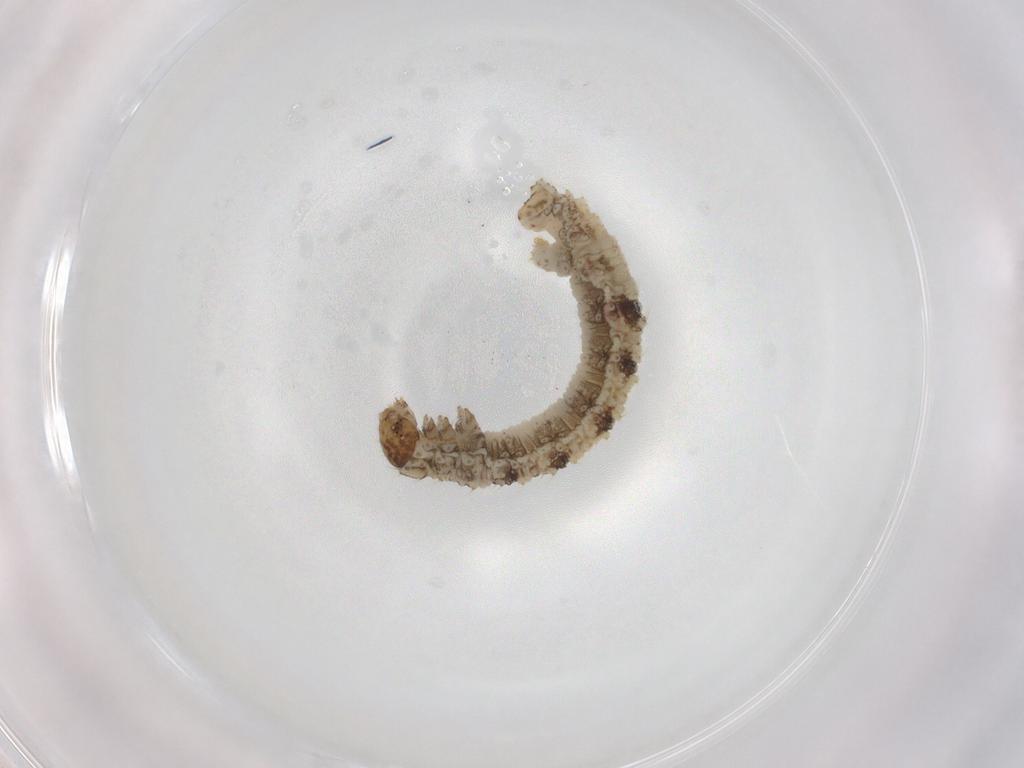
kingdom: Animalia
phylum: Arthropoda
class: Insecta
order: Lepidoptera
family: Geometridae
